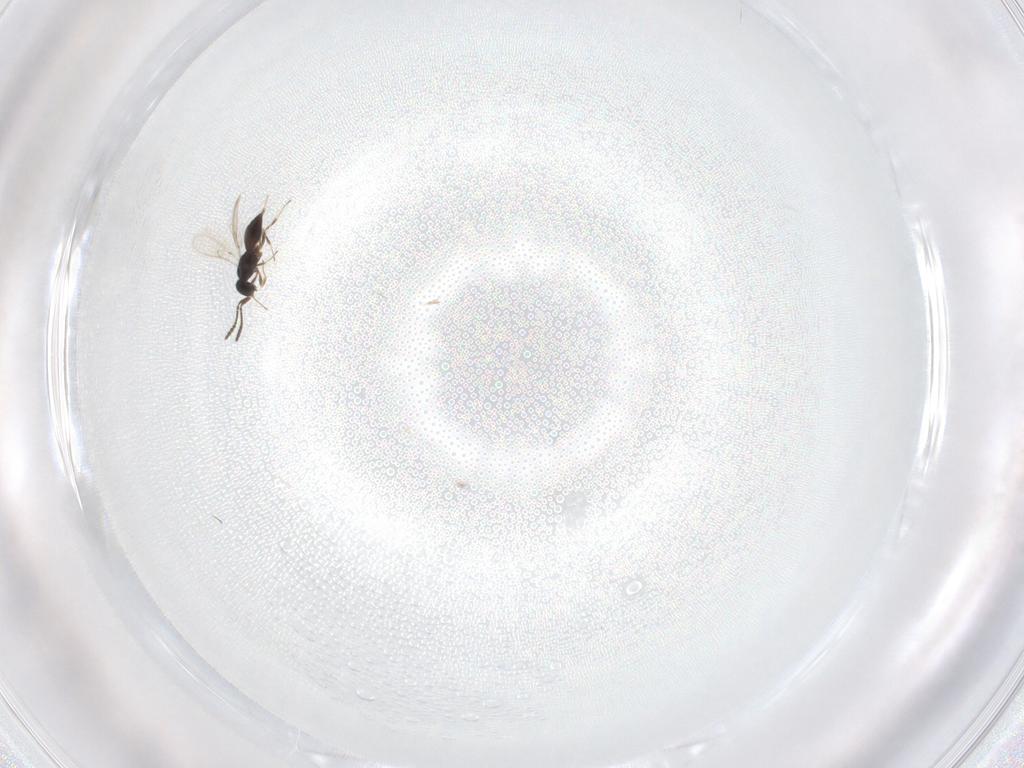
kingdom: Animalia
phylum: Arthropoda
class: Insecta
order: Hymenoptera
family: Scelionidae
